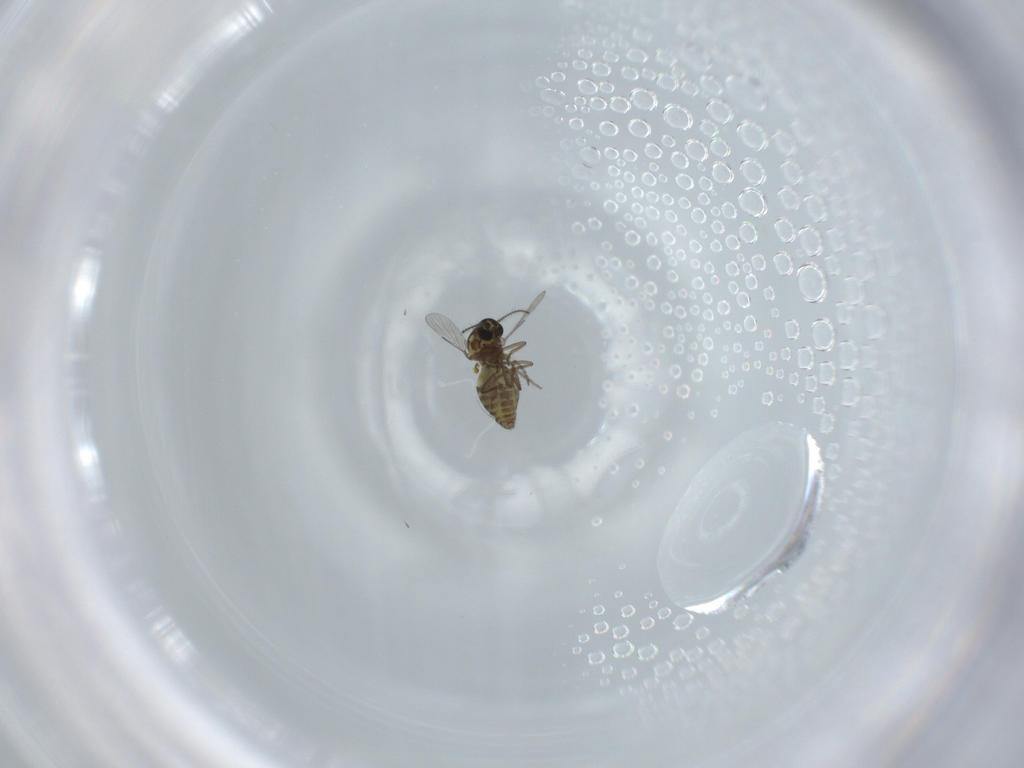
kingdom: Animalia
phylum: Arthropoda
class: Insecta
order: Diptera
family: Ceratopogonidae
